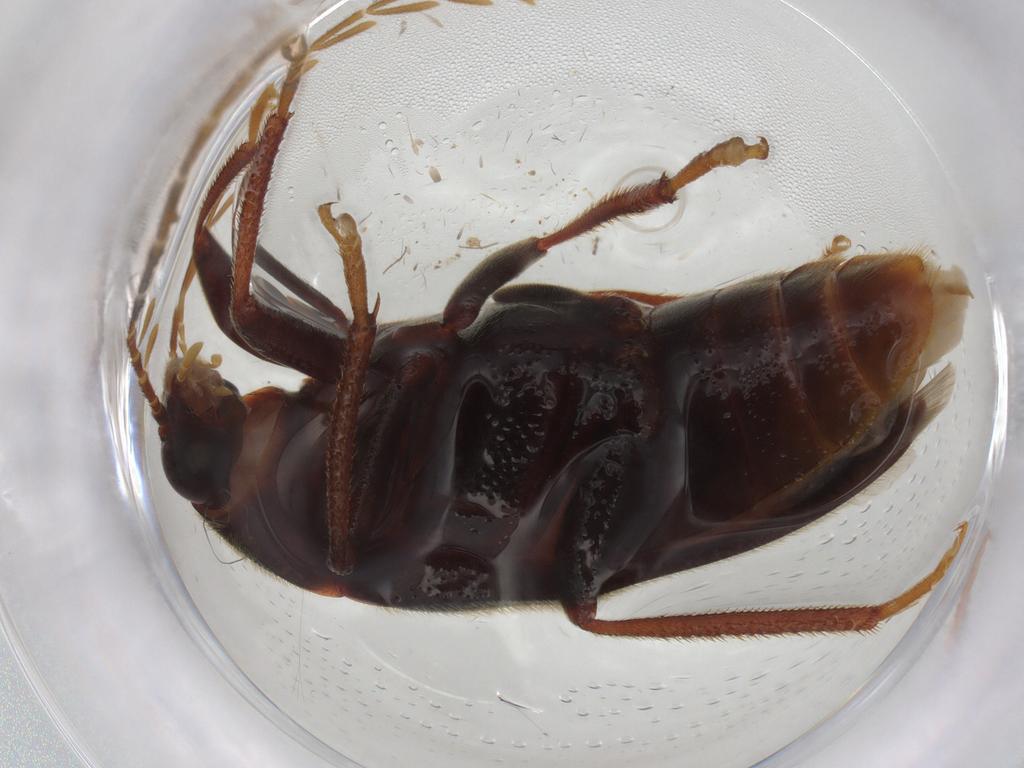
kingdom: Animalia
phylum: Arthropoda
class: Insecta
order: Coleoptera
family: Ptilodactylidae
